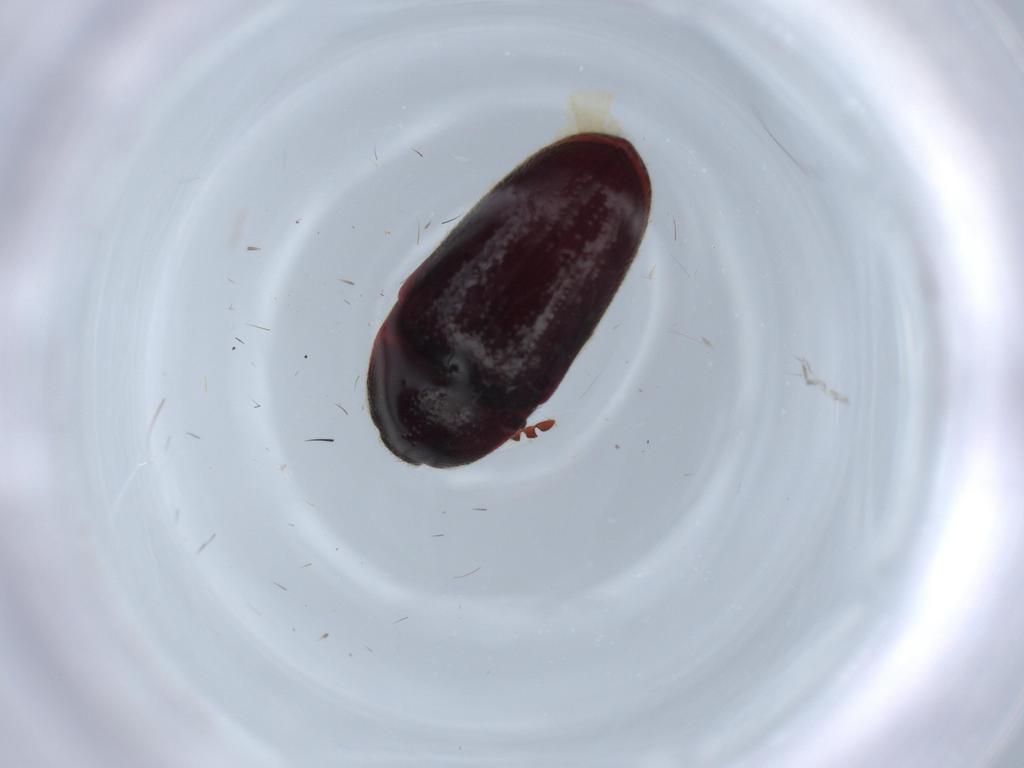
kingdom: Animalia
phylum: Arthropoda
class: Insecta
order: Coleoptera
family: Throscidae
